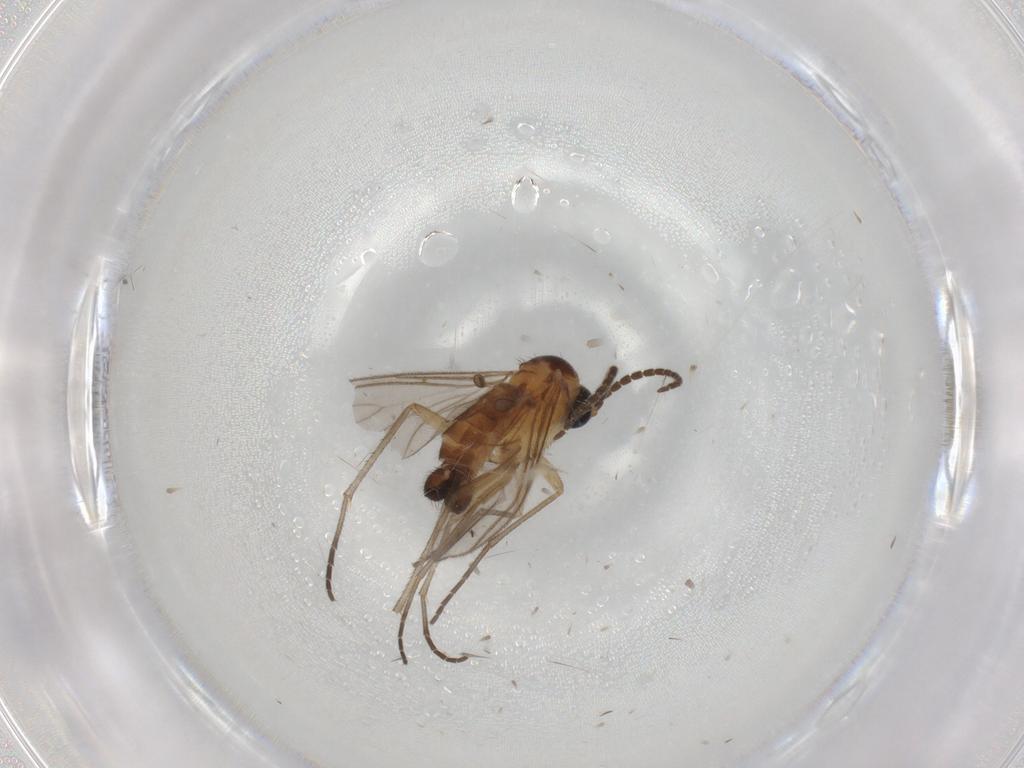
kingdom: Animalia
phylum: Arthropoda
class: Insecta
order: Diptera
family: Sciaridae
